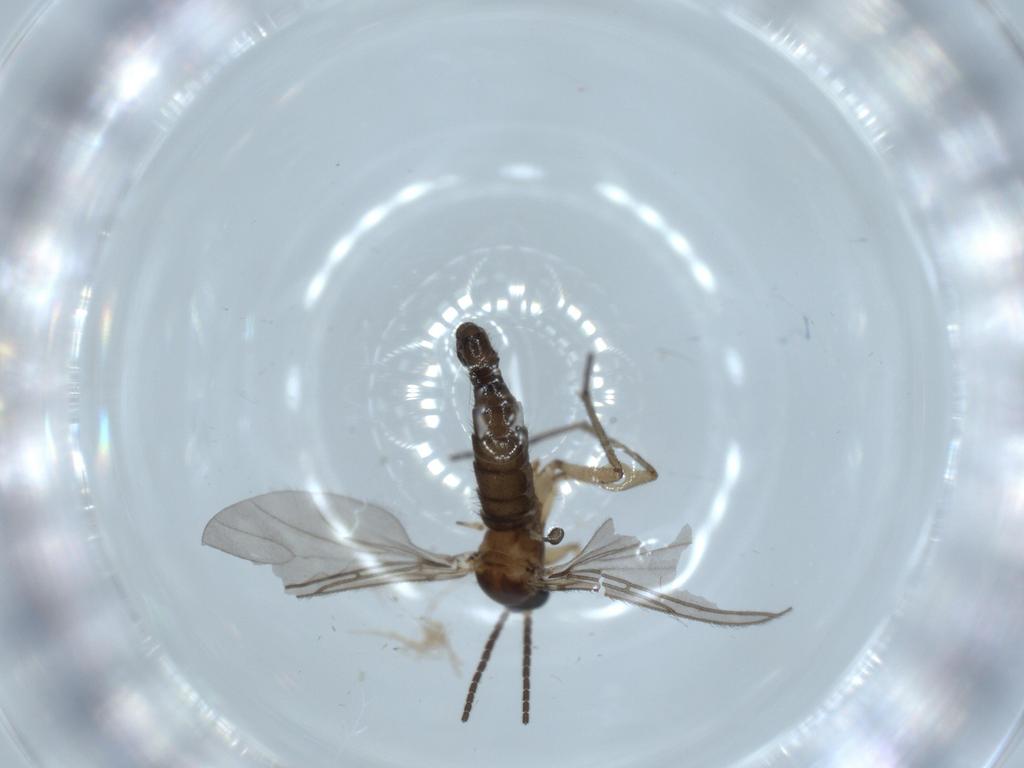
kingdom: Animalia
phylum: Arthropoda
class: Insecta
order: Diptera
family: Sciaridae
